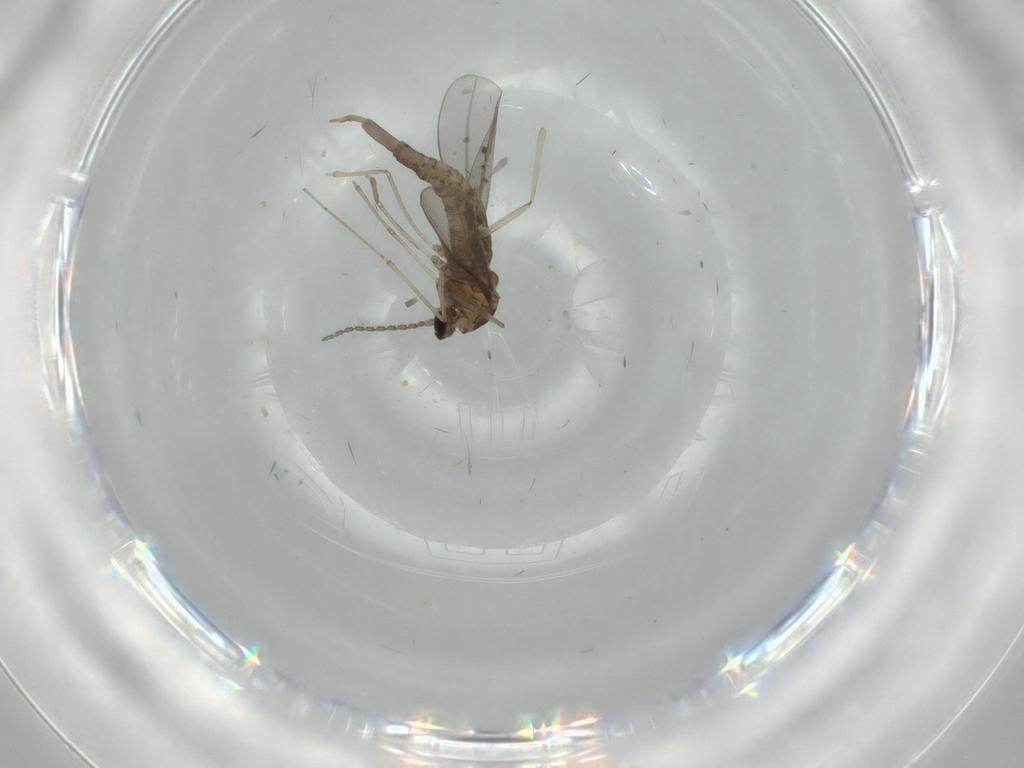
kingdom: Animalia
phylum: Arthropoda
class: Insecta
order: Diptera
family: Cecidomyiidae
